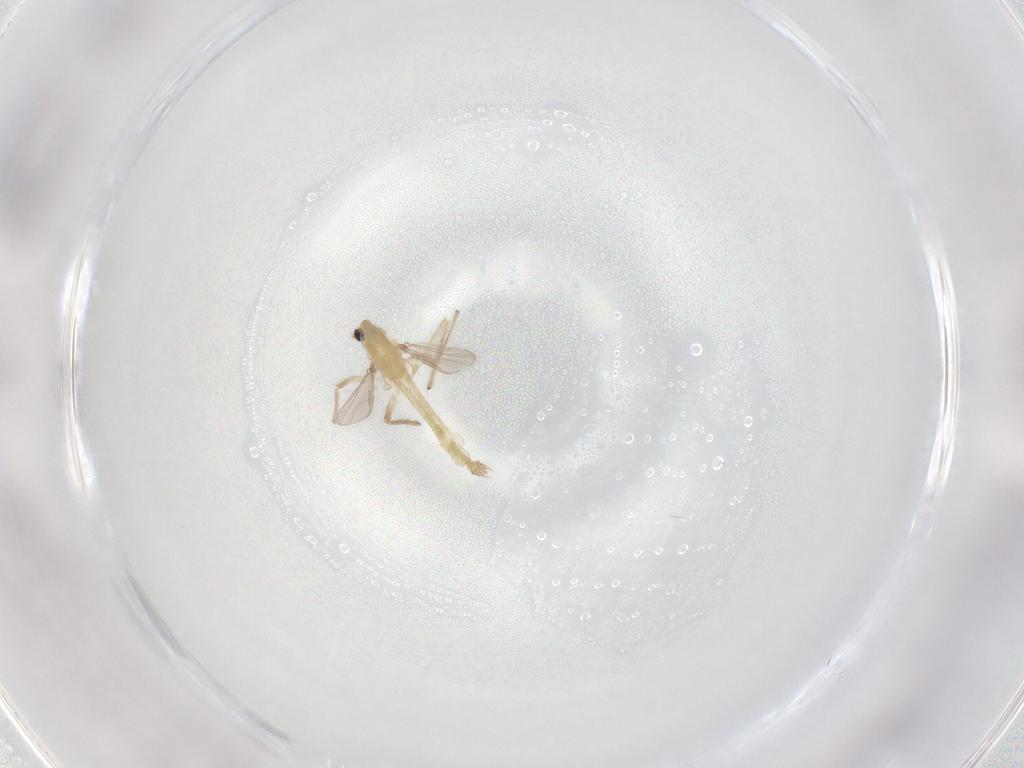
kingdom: Animalia
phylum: Arthropoda
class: Insecta
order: Diptera
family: Chironomidae
